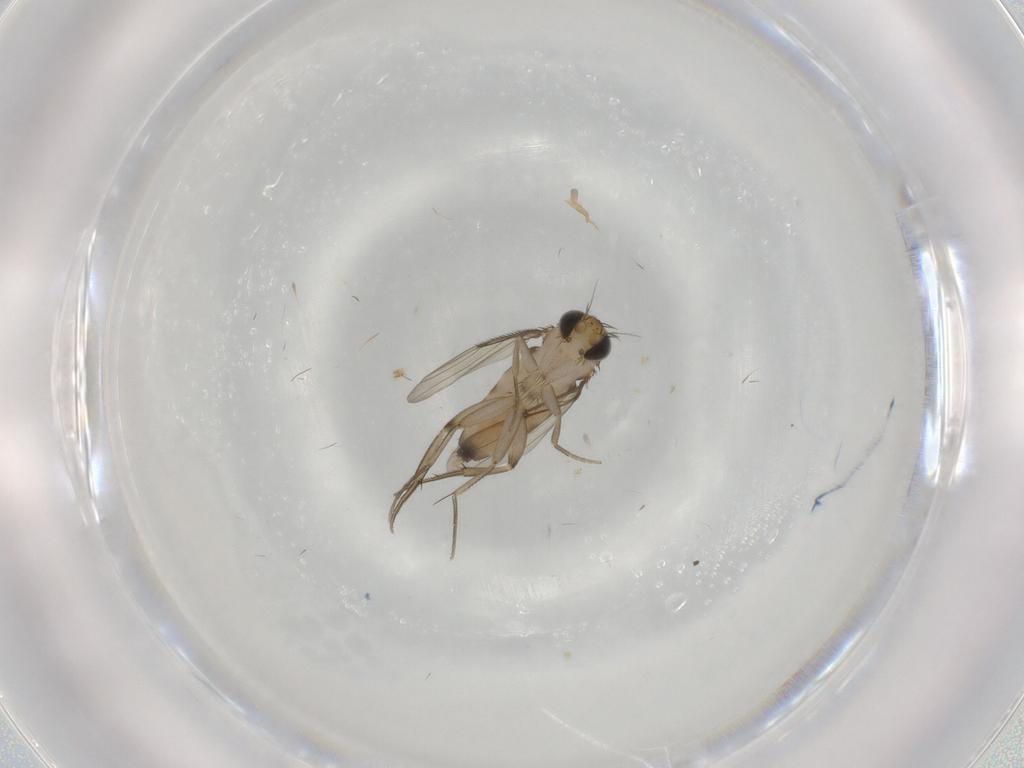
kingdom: Animalia
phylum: Arthropoda
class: Insecta
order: Diptera
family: Phoridae
